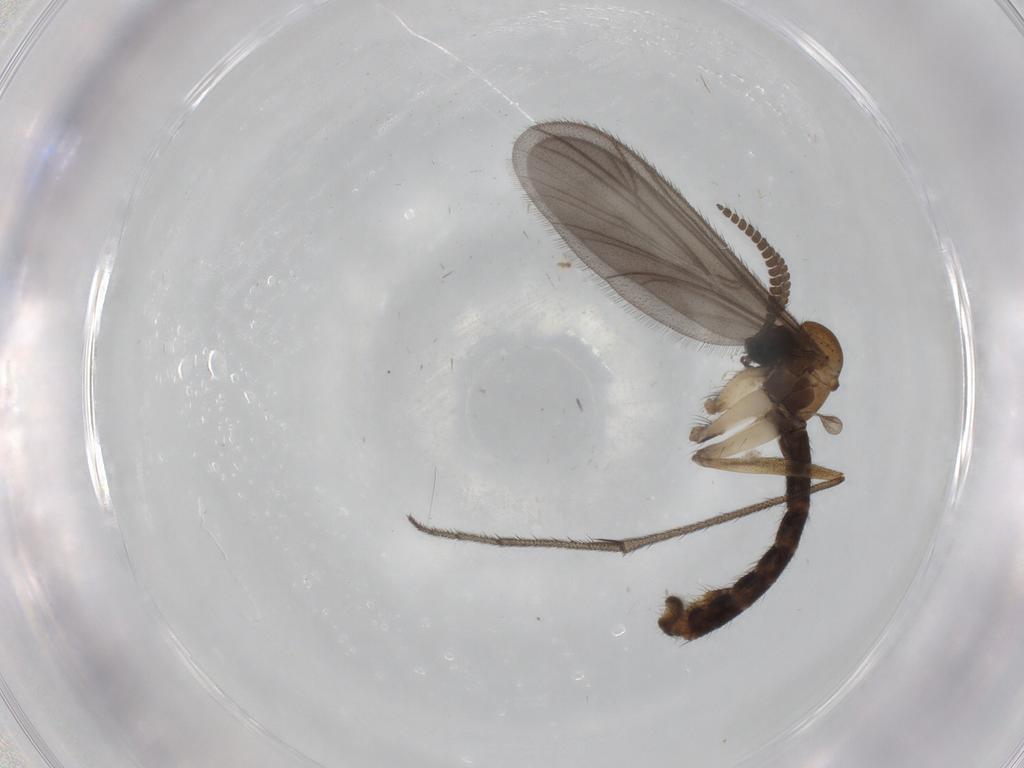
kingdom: Animalia
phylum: Arthropoda
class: Insecta
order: Diptera
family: Ditomyiidae
